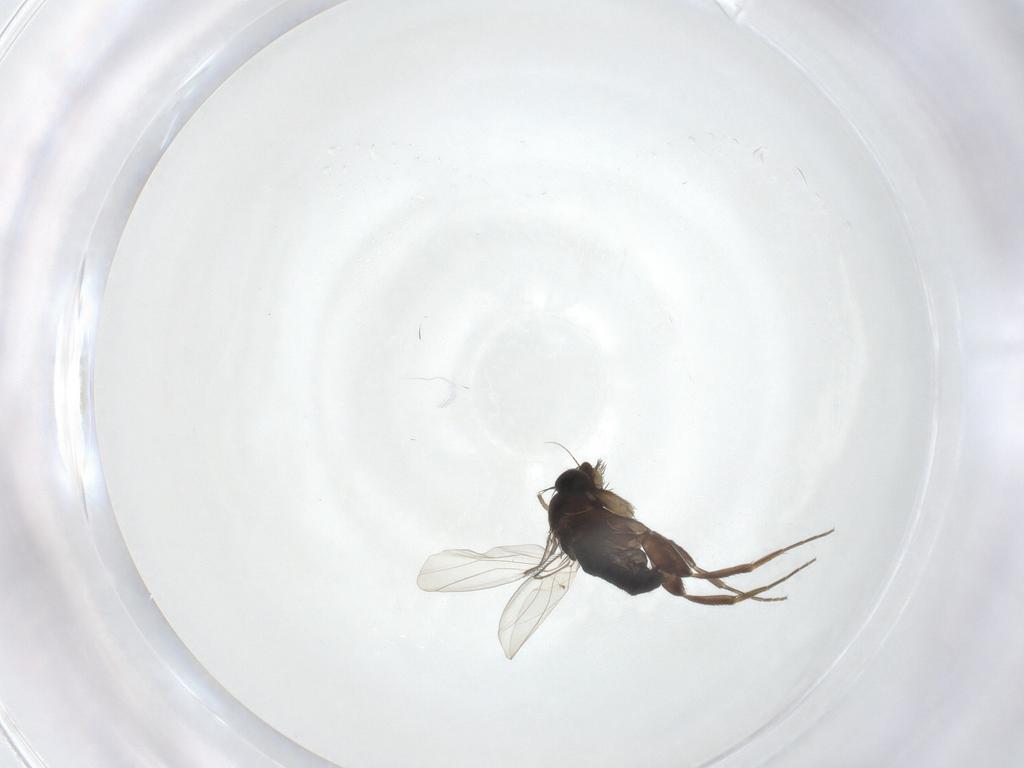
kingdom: Animalia
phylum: Arthropoda
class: Insecta
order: Diptera
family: Phoridae
